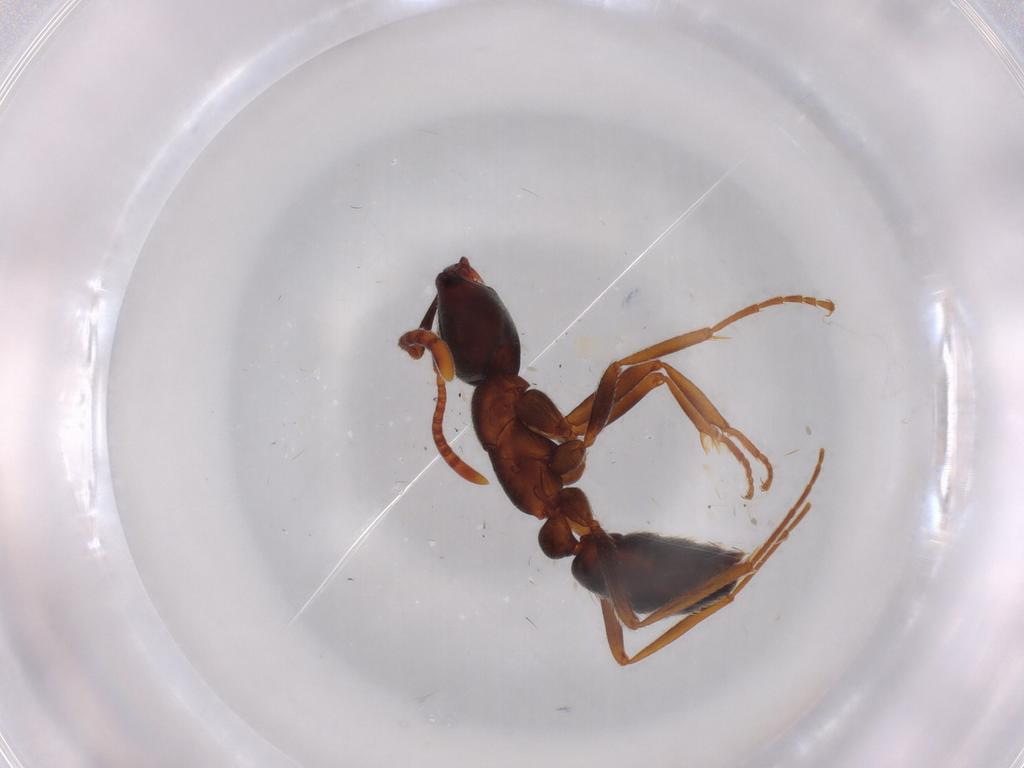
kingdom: Animalia
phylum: Arthropoda
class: Insecta
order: Hymenoptera
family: Formicidae
